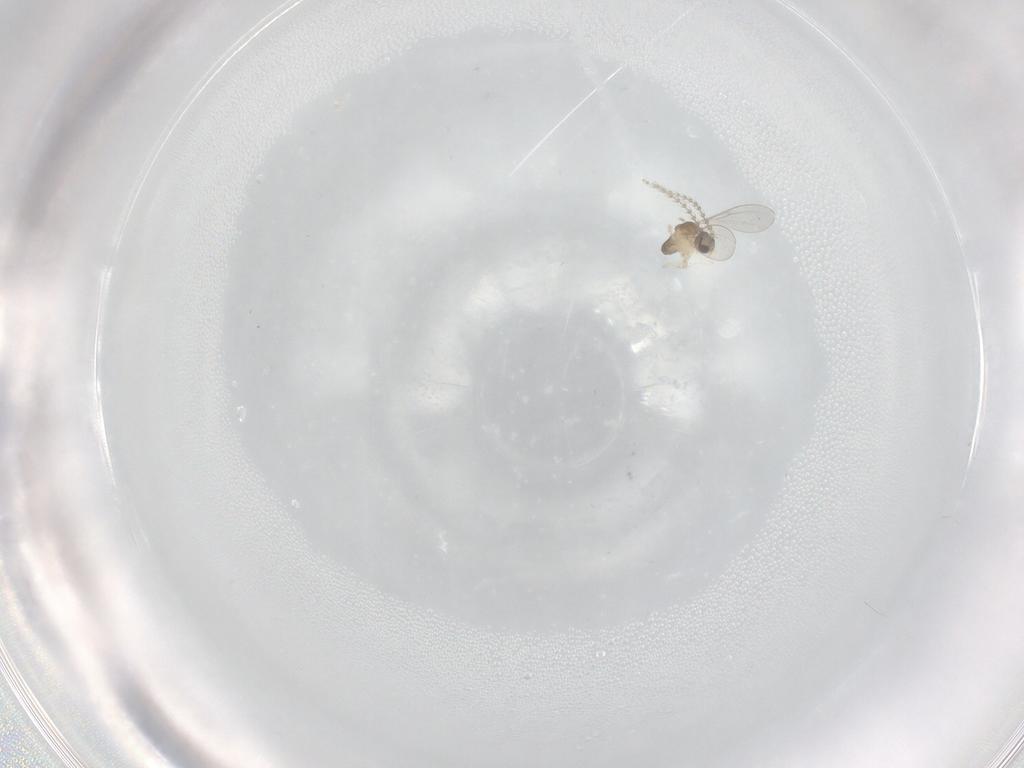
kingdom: Animalia
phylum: Arthropoda
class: Insecta
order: Diptera
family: Cecidomyiidae
